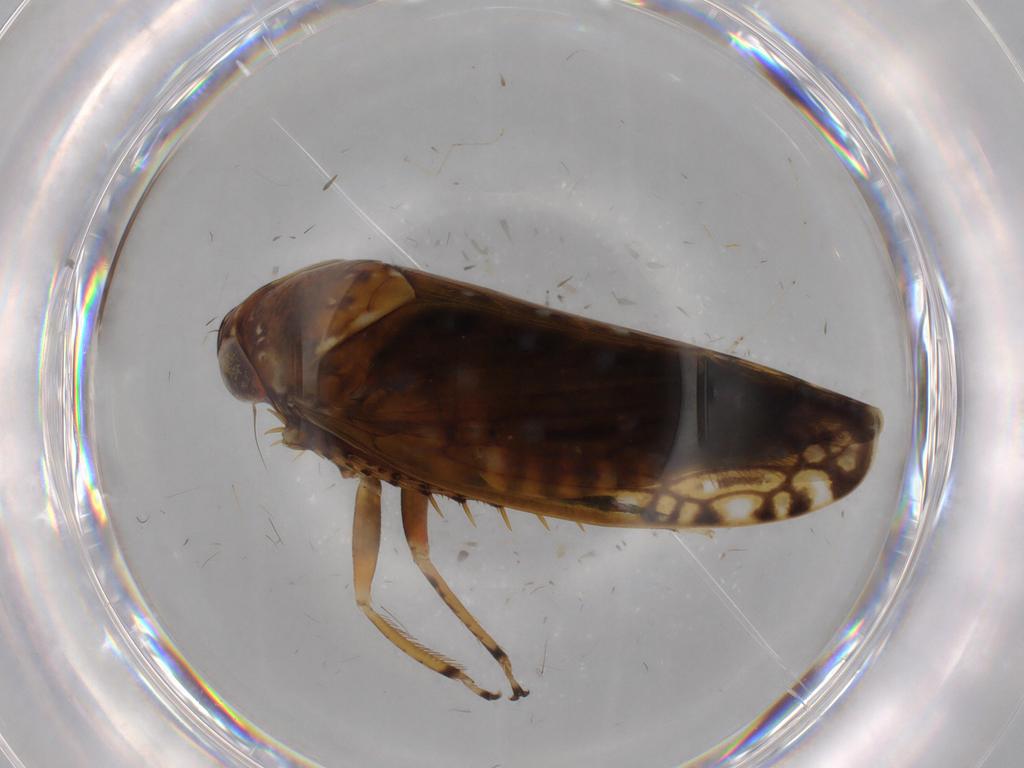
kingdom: Animalia
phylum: Arthropoda
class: Insecta
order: Hemiptera
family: Cicadellidae
